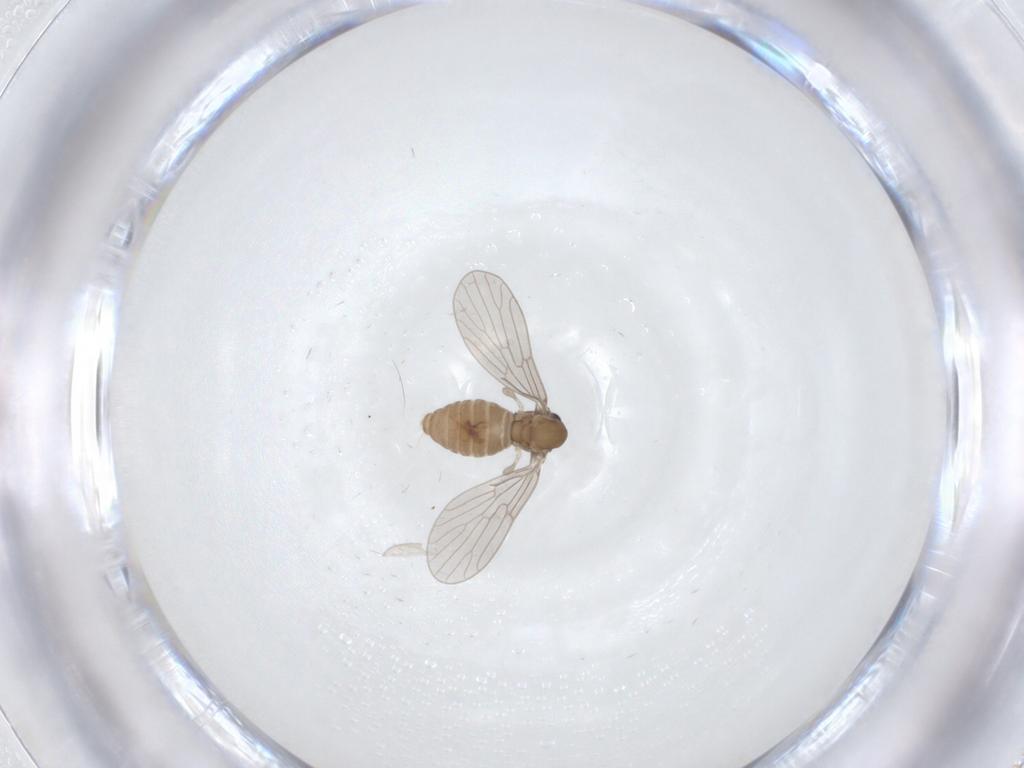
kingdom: Animalia
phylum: Arthropoda
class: Insecta
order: Diptera
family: Psychodidae
